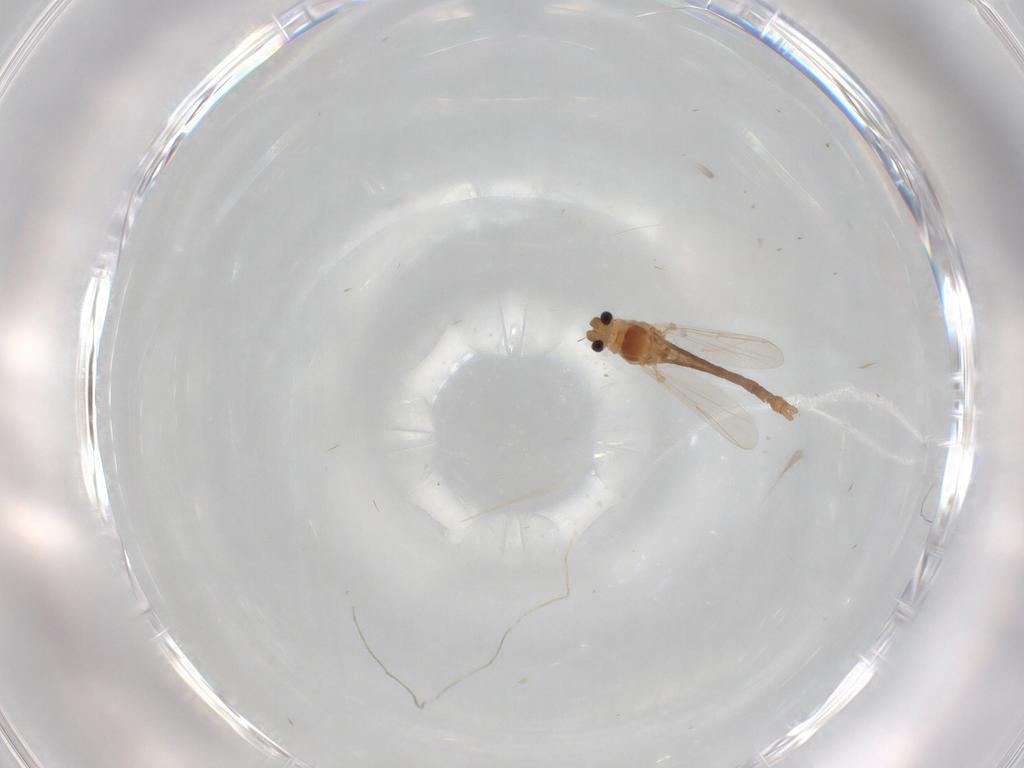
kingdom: Animalia
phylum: Arthropoda
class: Insecta
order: Diptera
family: Chironomidae
